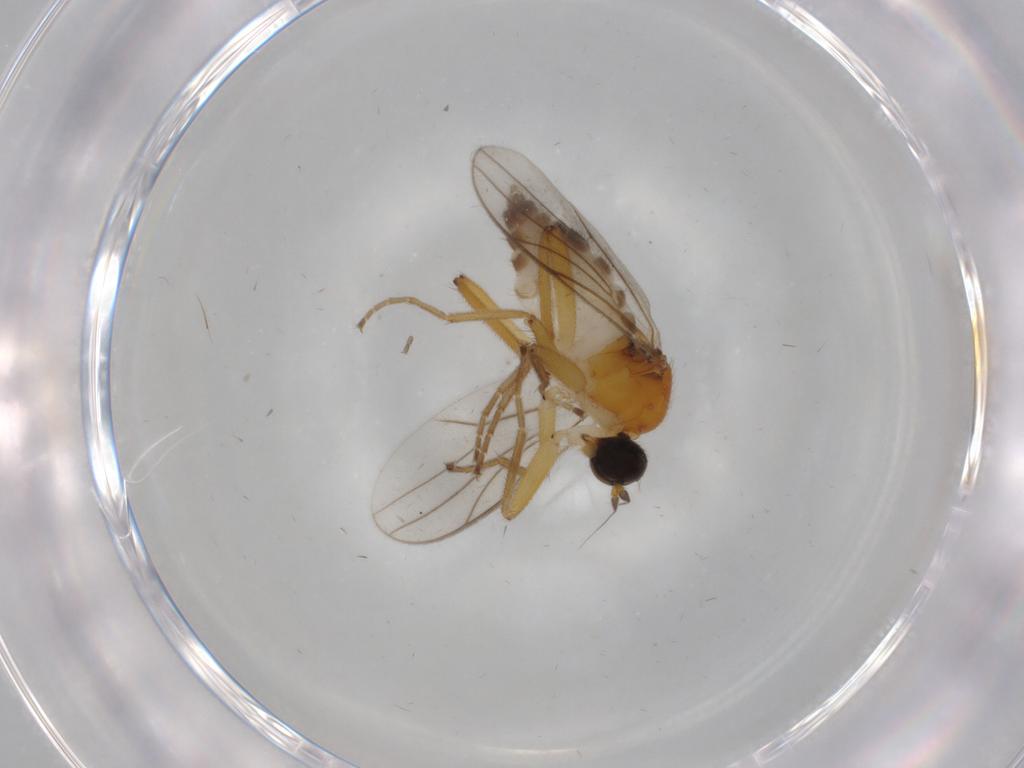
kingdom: Animalia
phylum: Arthropoda
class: Insecta
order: Diptera
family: Hybotidae
